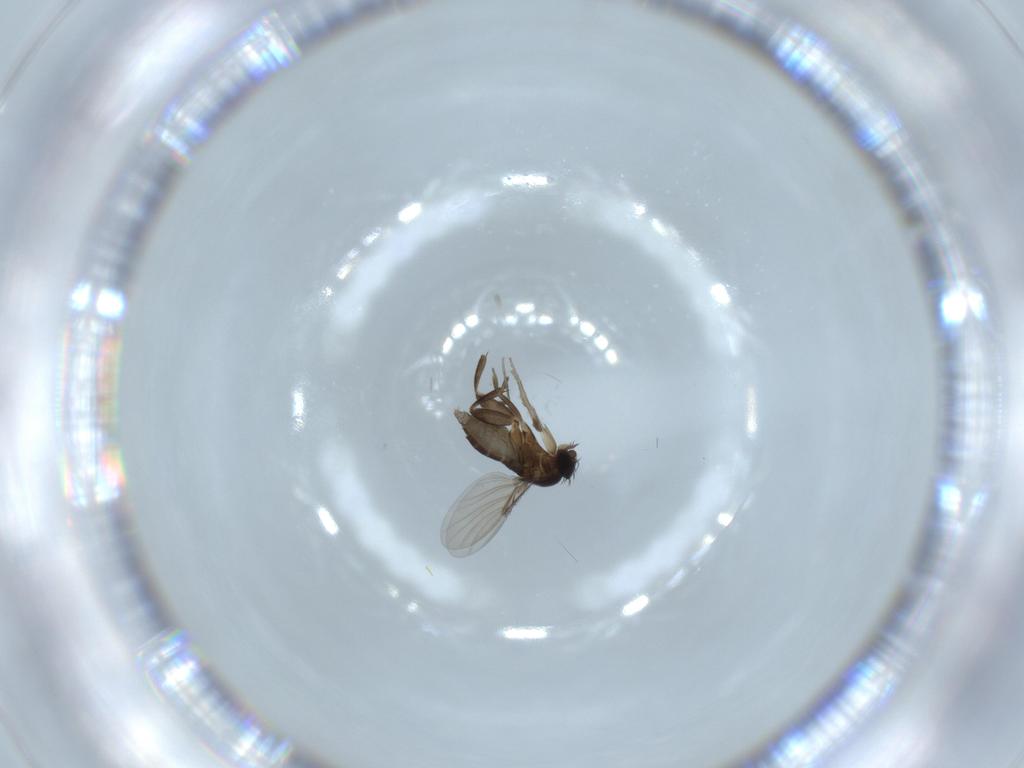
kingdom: Animalia
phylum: Arthropoda
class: Insecta
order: Diptera
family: Phoridae
